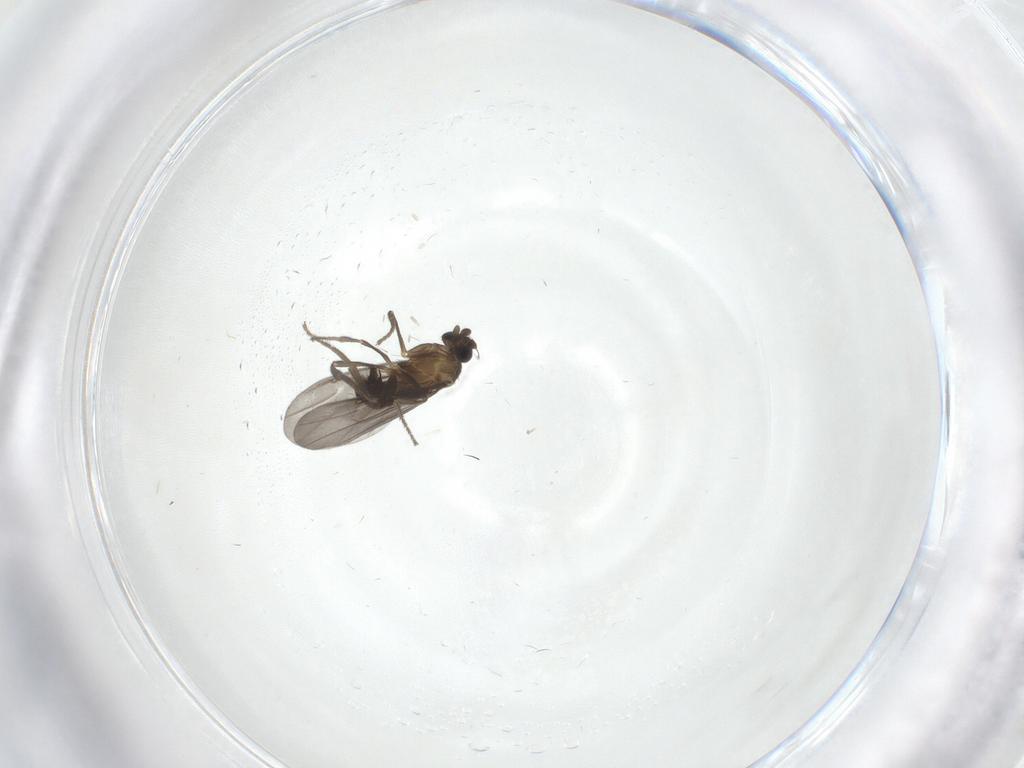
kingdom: Animalia
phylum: Arthropoda
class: Insecta
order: Diptera
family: Phoridae
